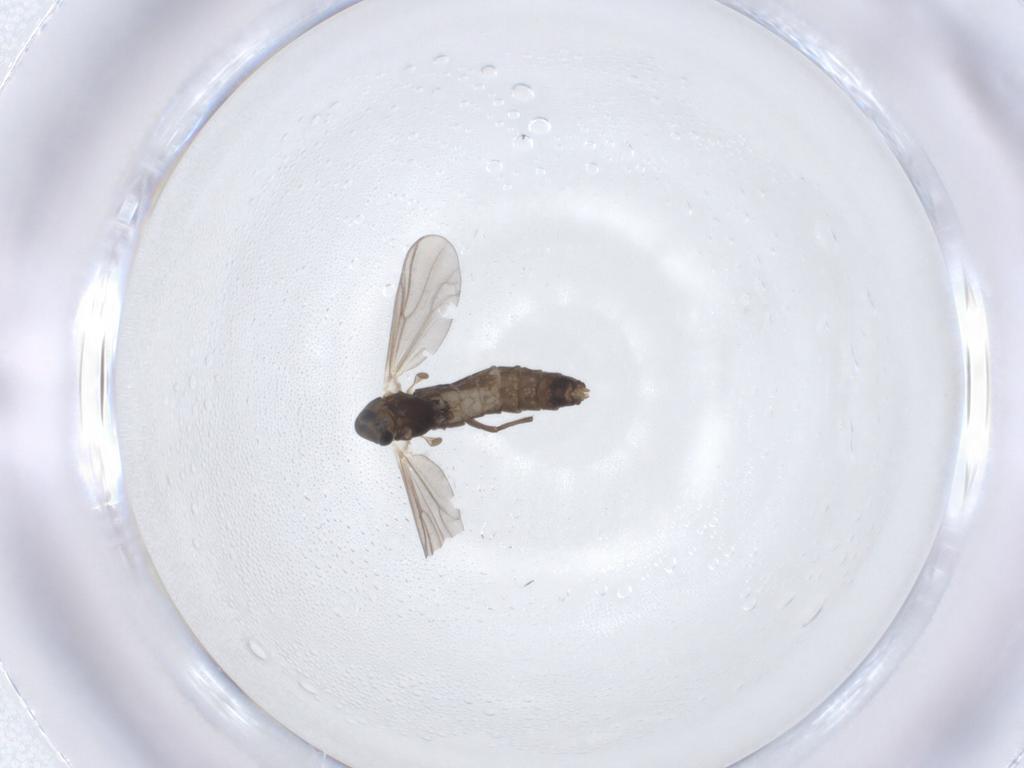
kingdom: Animalia
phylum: Arthropoda
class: Insecta
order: Diptera
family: Chironomidae
